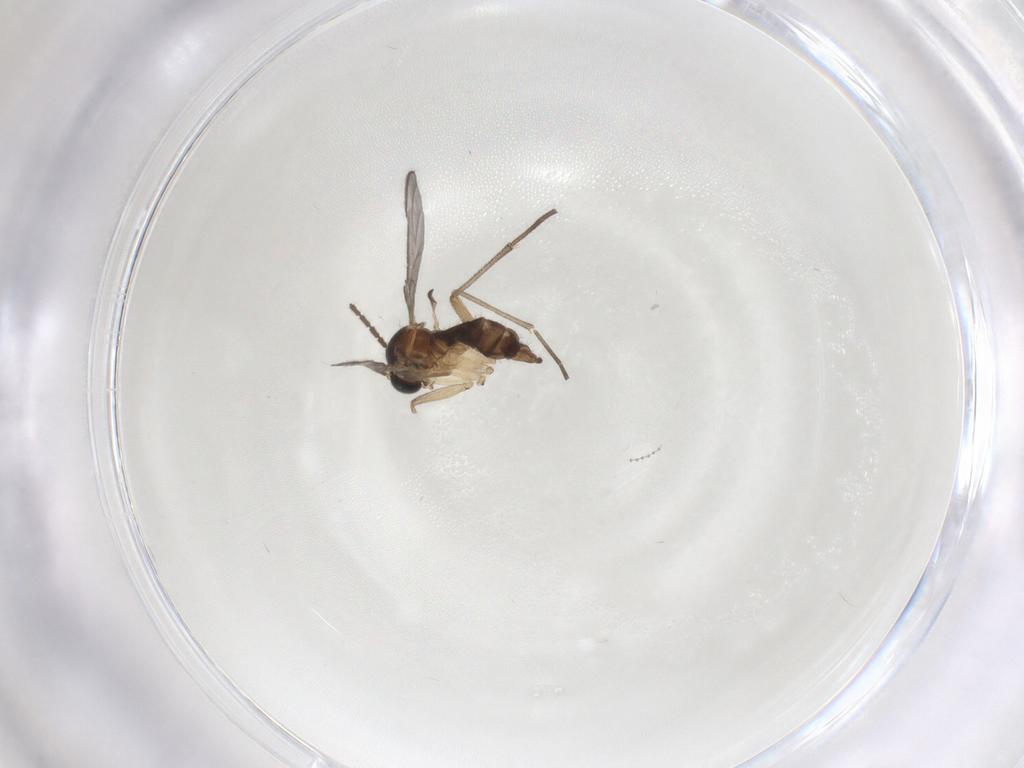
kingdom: Animalia
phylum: Arthropoda
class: Insecta
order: Diptera
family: Sciaridae
